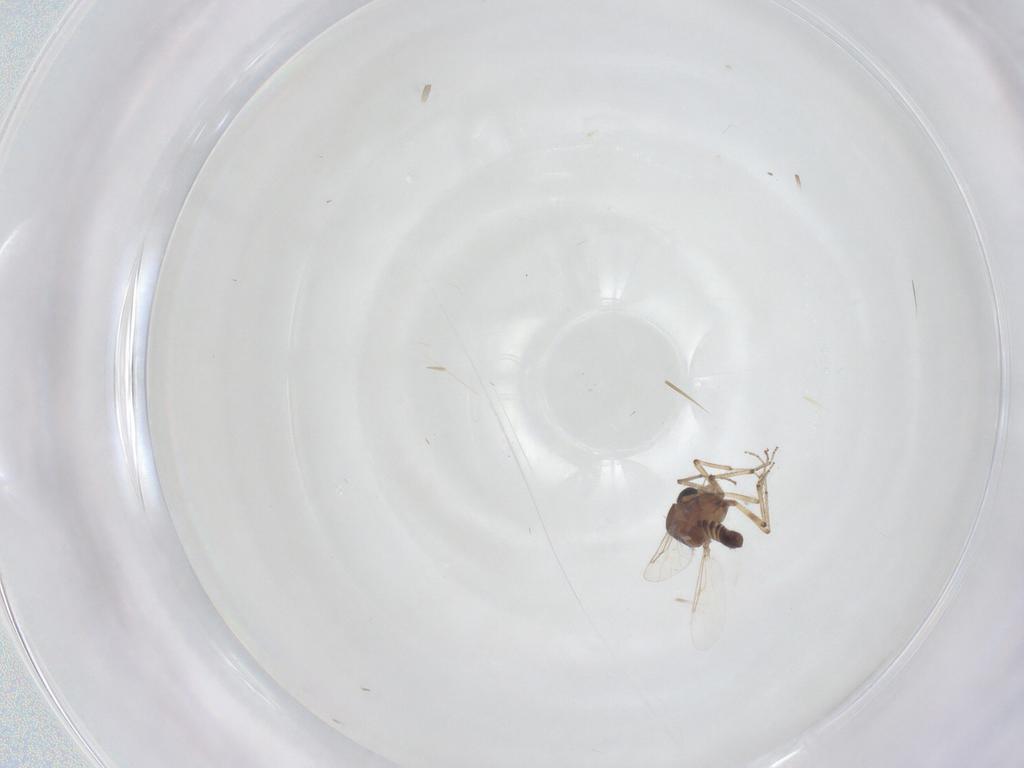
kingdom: Animalia
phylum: Arthropoda
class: Insecta
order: Diptera
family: Ceratopogonidae
